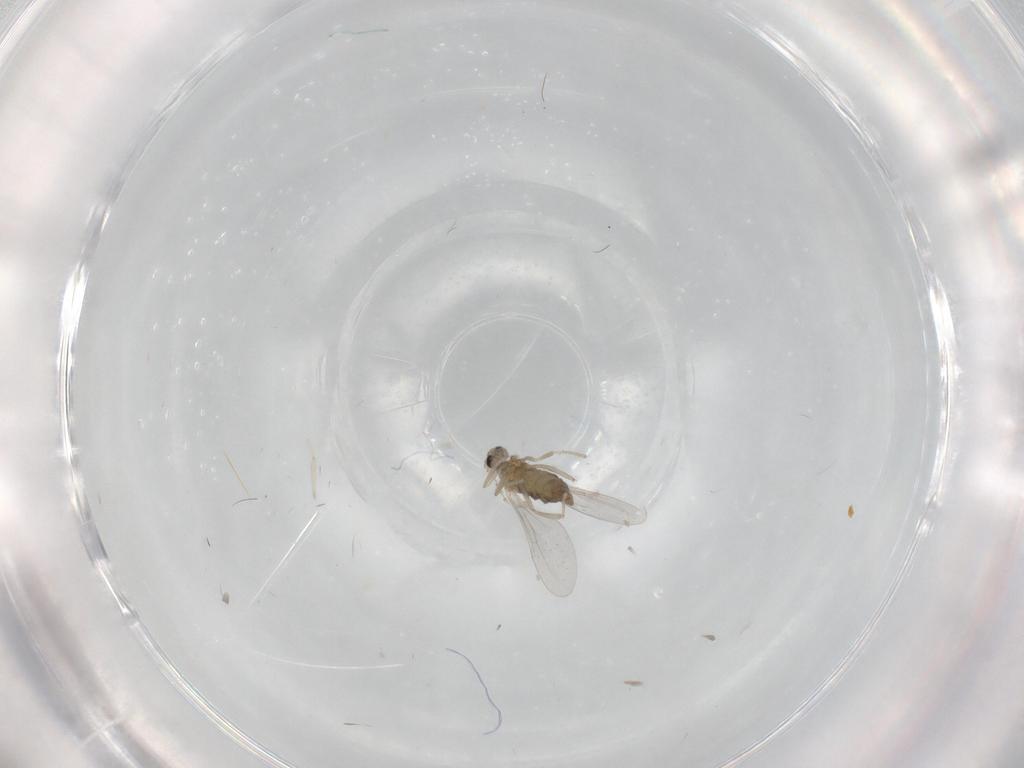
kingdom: Animalia
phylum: Arthropoda
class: Insecta
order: Diptera
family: Cecidomyiidae
